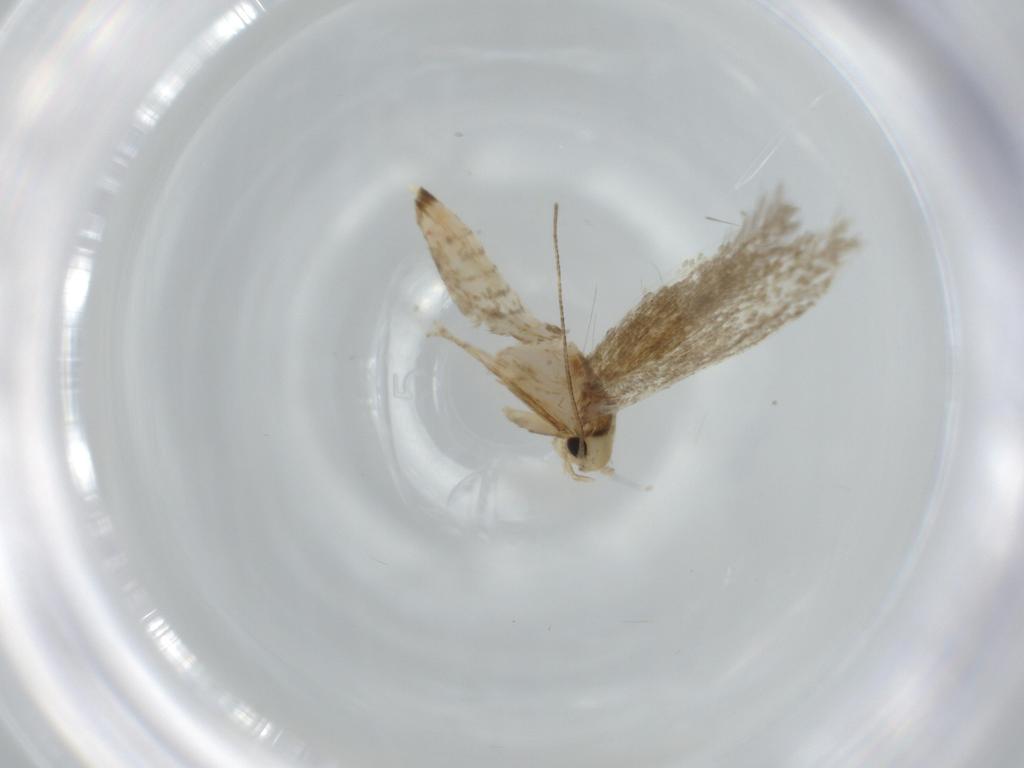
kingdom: Animalia
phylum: Arthropoda
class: Insecta
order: Lepidoptera
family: Tineidae
